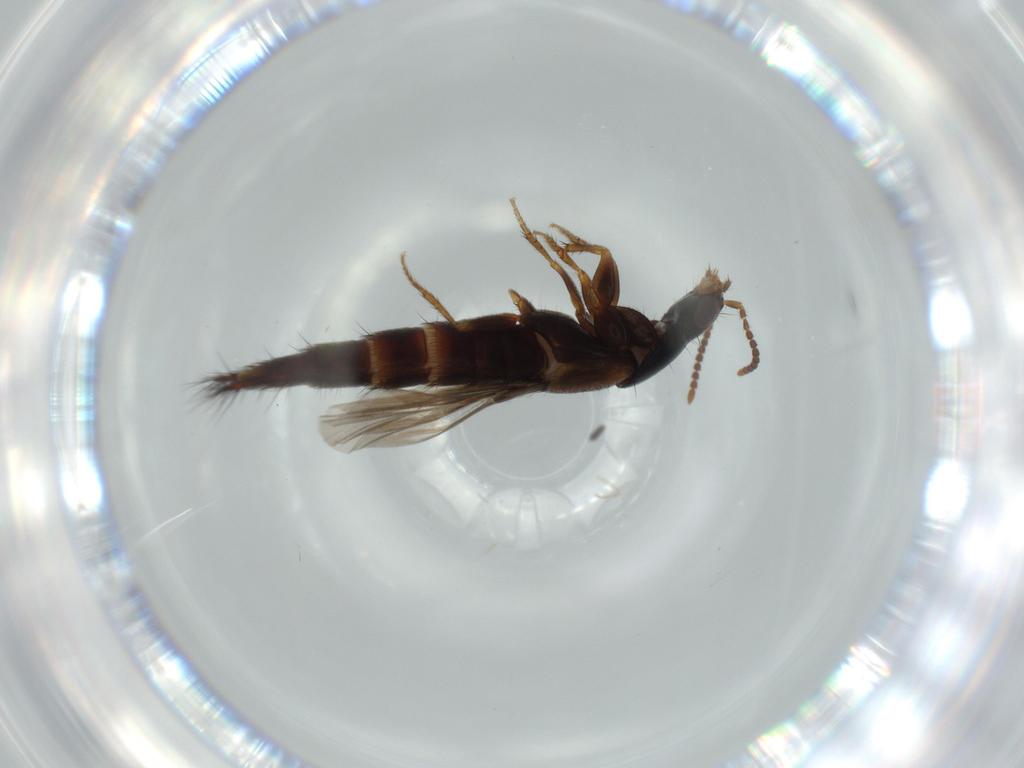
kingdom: Animalia
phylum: Arthropoda
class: Insecta
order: Coleoptera
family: Staphylinidae
